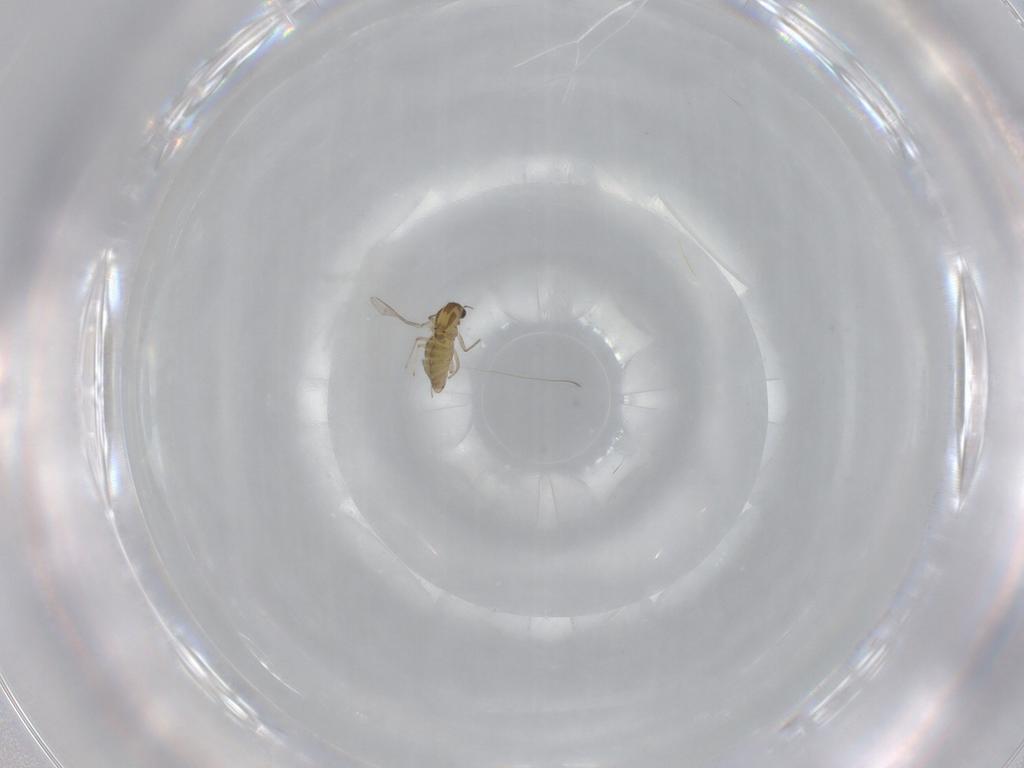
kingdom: Animalia
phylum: Arthropoda
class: Insecta
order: Diptera
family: Chironomidae
